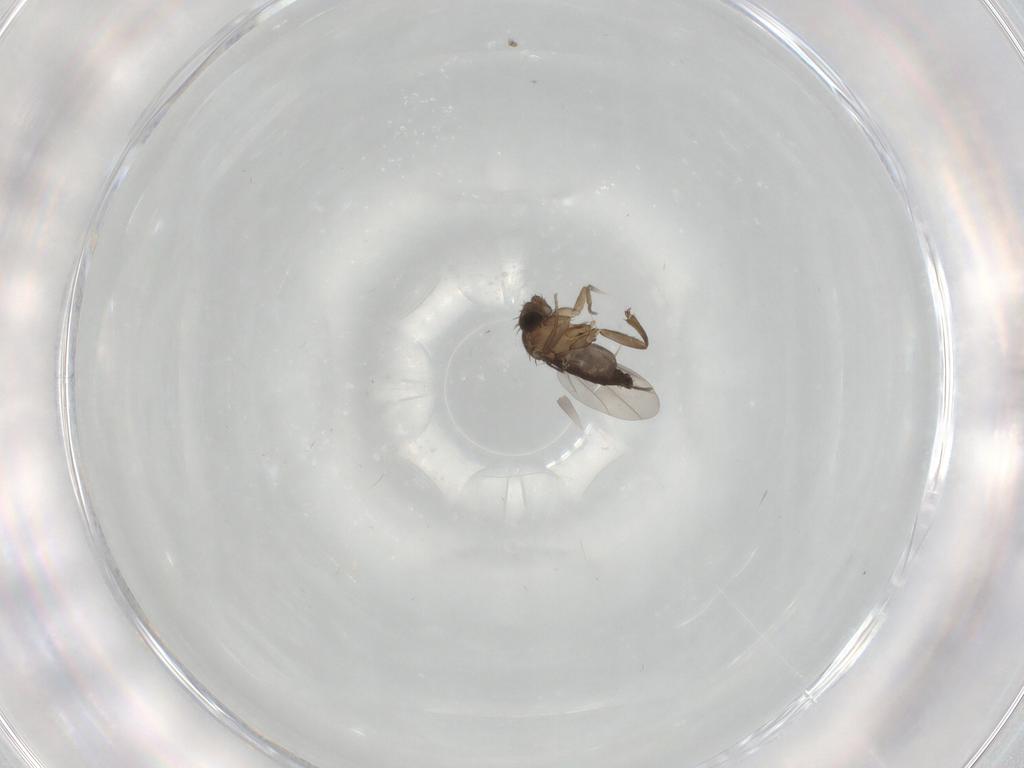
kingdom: Animalia
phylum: Arthropoda
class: Insecta
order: Diptera
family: Phoridae
